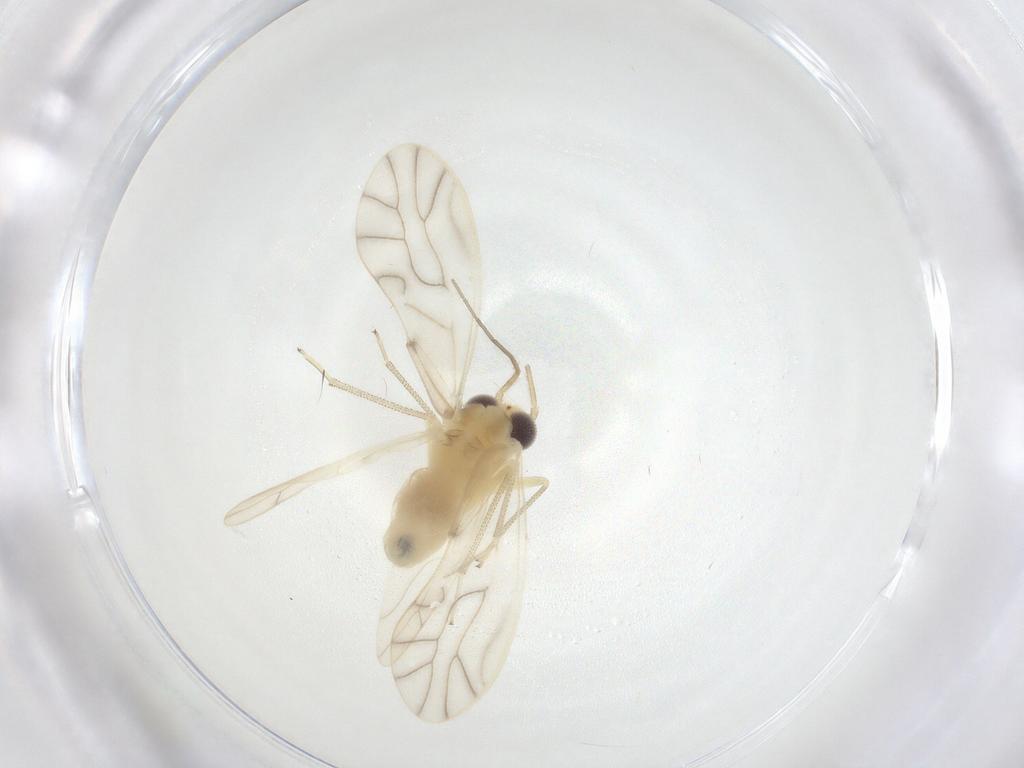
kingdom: Animalia
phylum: Arthropoda
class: Insecta
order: Psocodea
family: Caeciliusidae
